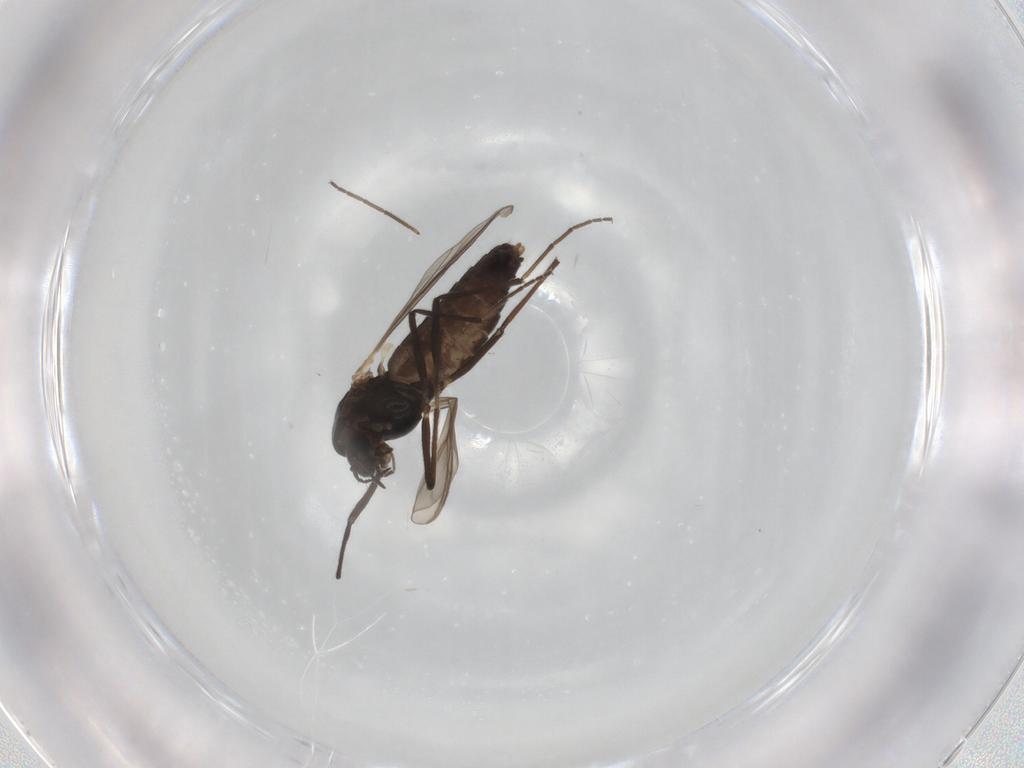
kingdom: Animalia
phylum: Arthropoda
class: Insecta
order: Diptera
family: Chironomidae
